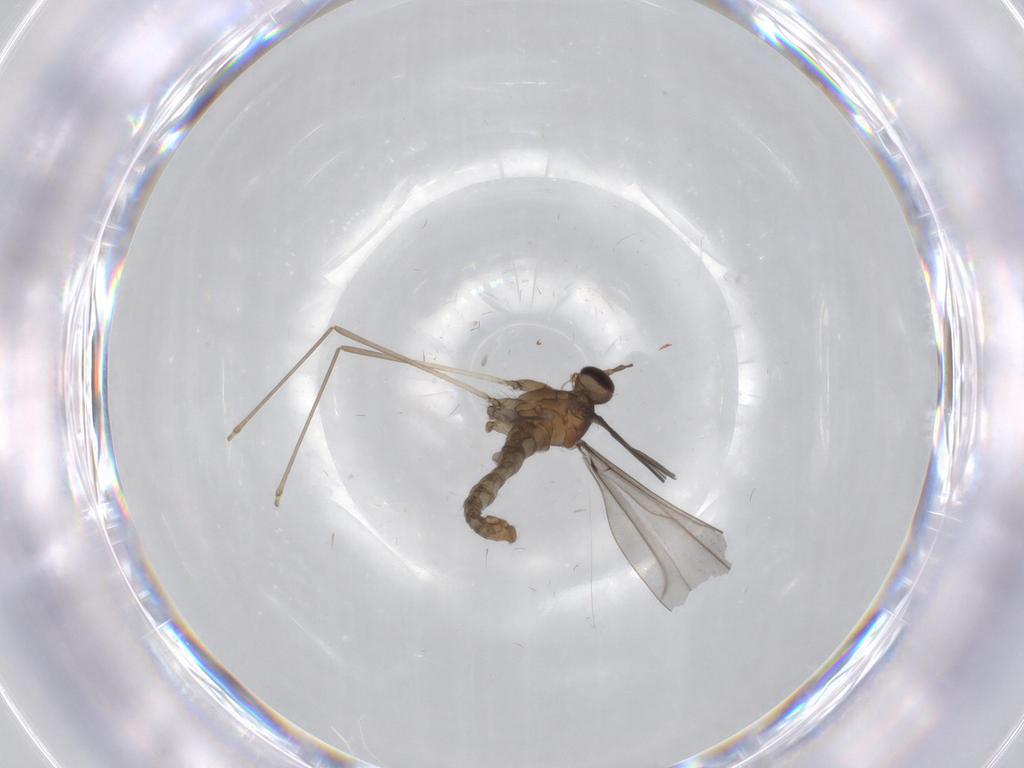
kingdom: Animalia
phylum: Arthropoda
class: Insecta
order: Diptera
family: Cecidomyiidae
